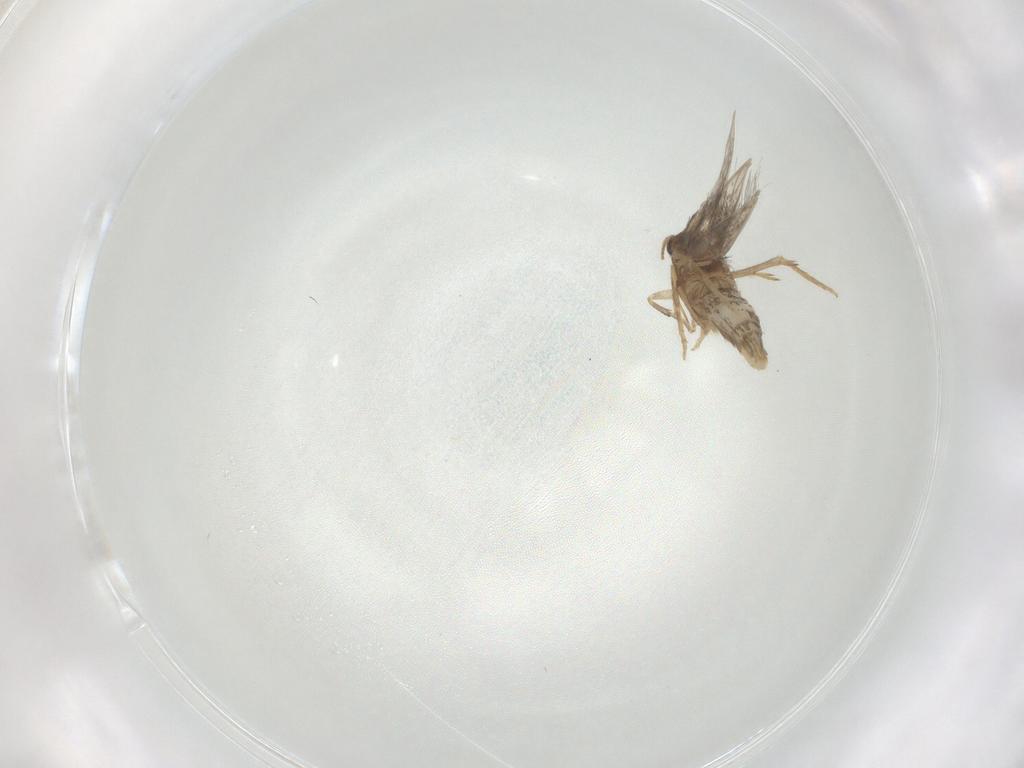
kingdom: Animalia
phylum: Arthropoda
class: Insecta
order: Lepidoptera
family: Nepticulidae
